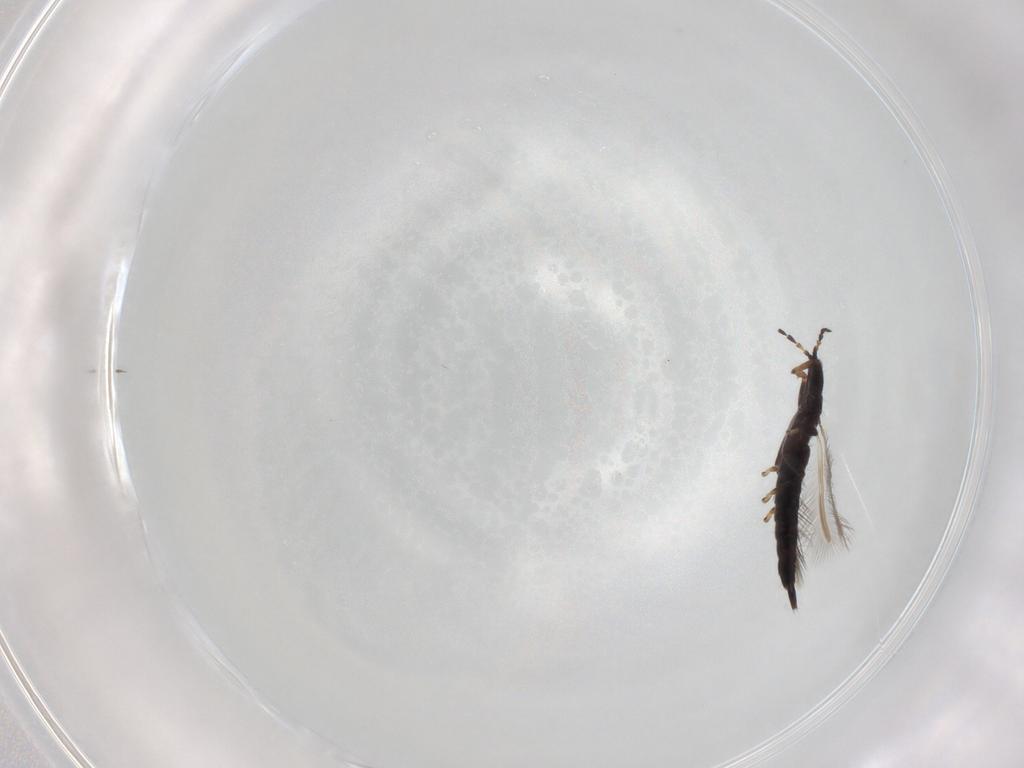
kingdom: Animalia
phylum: Arthropoda
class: Insecta
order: Thysanoptera
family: Phlaeothripidae
